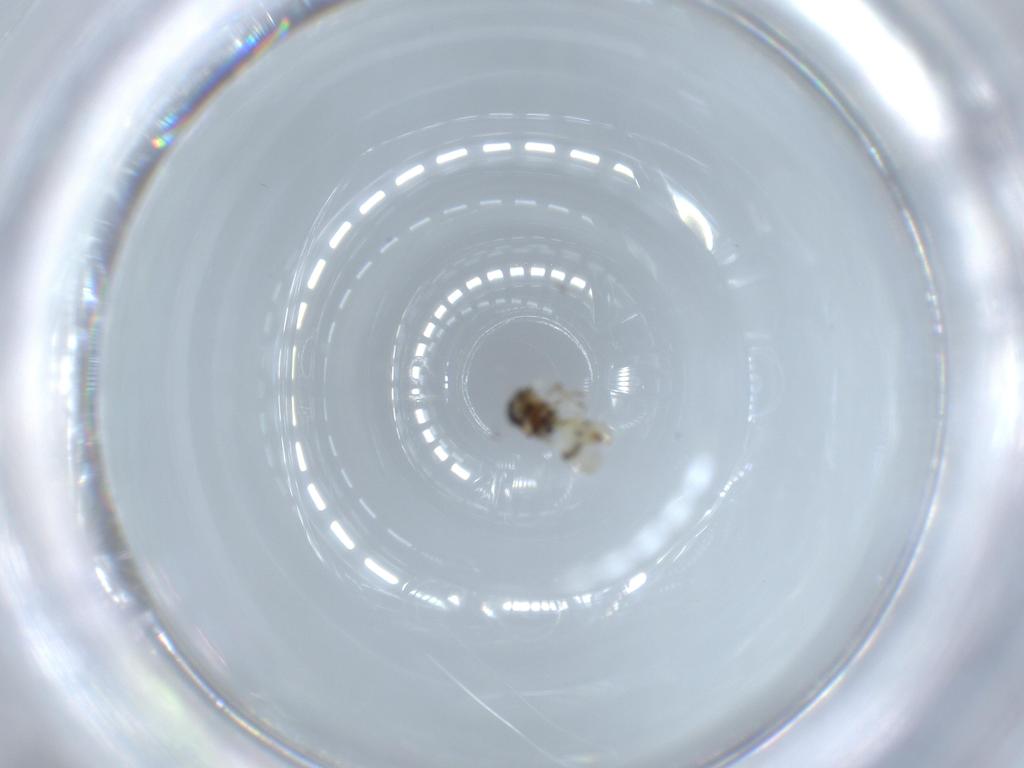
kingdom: Animalia
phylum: Arthropoda
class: Insecta
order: Hymenoptera
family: Scelionidae
